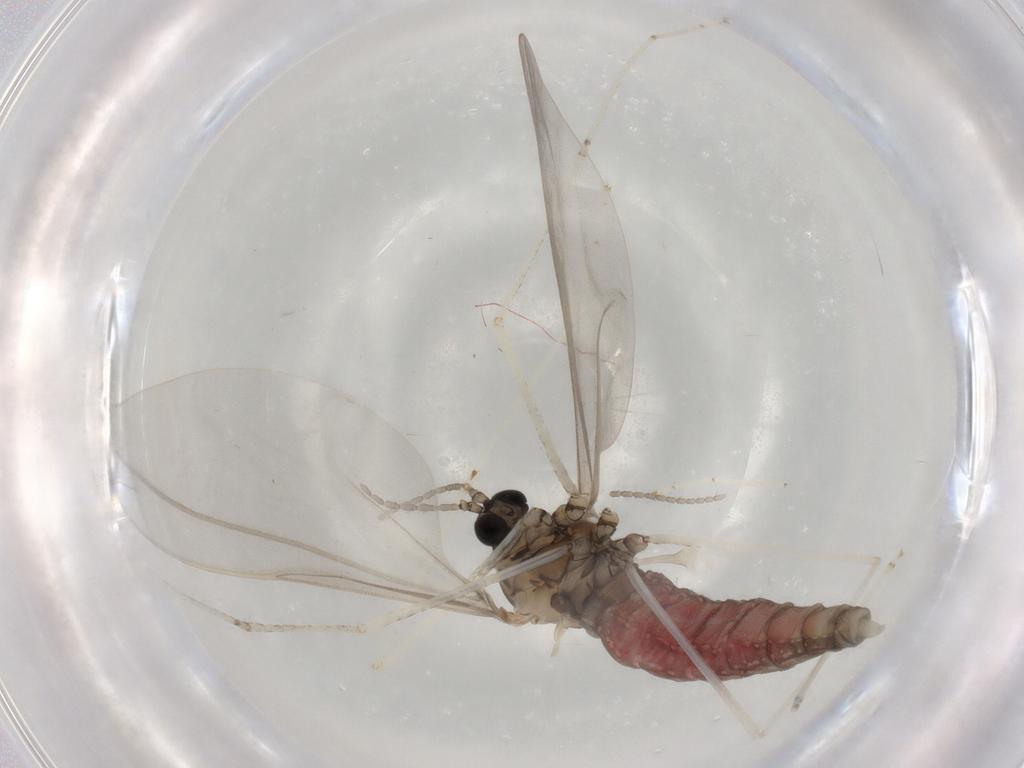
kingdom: Animalia
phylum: Arthropoda
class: Insecta
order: Diptera
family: Cecidomyiidae
